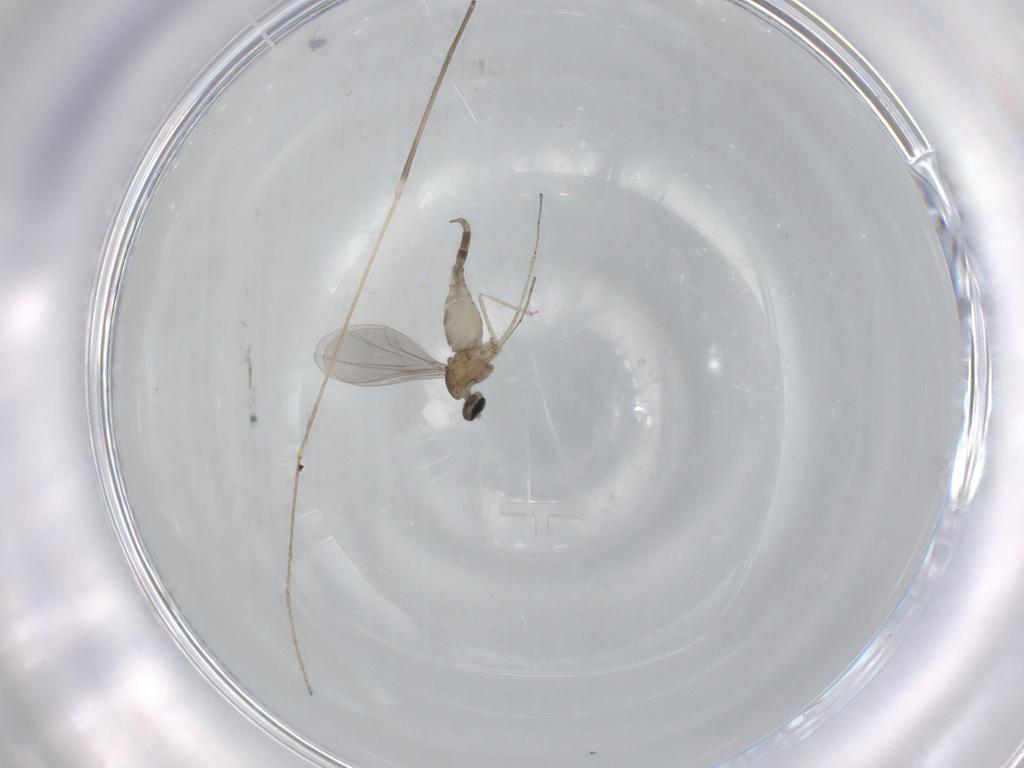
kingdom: Animalia
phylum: Arthropoda
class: Insecta
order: Diptera
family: Cecidomyiidae
